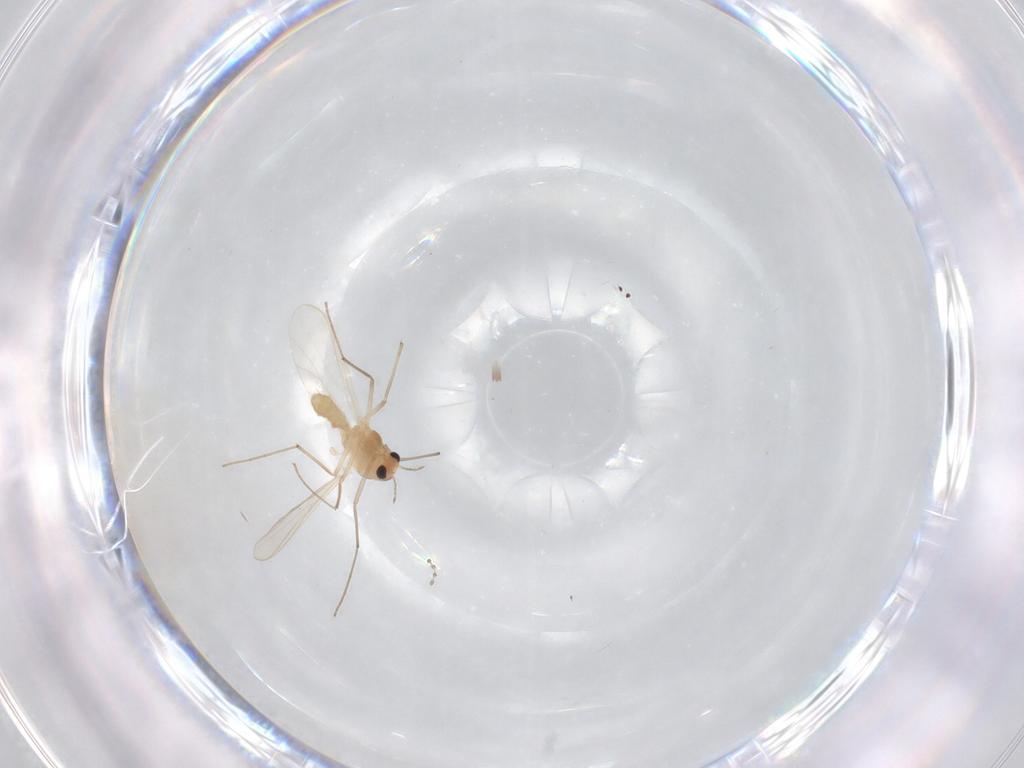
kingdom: Animalia
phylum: Arthropoda
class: Insecta
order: Diptera
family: Chironomidae
